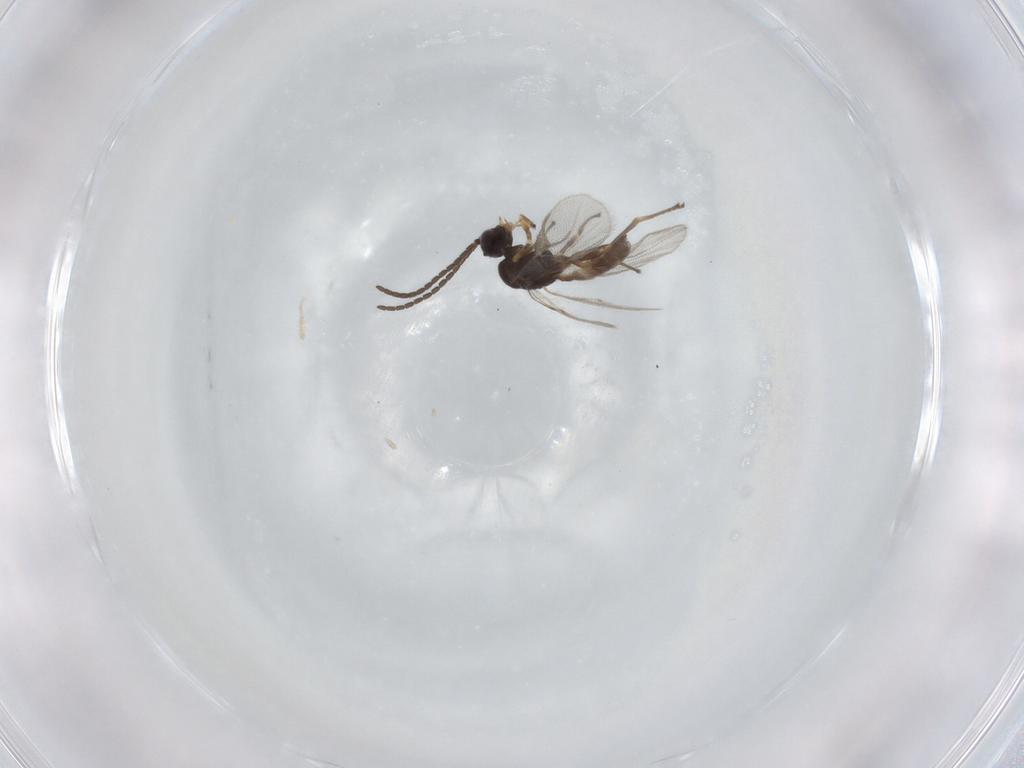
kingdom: Animalia
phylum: Arthropoda
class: Insecta
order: Hymenoptera
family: Braconidae
